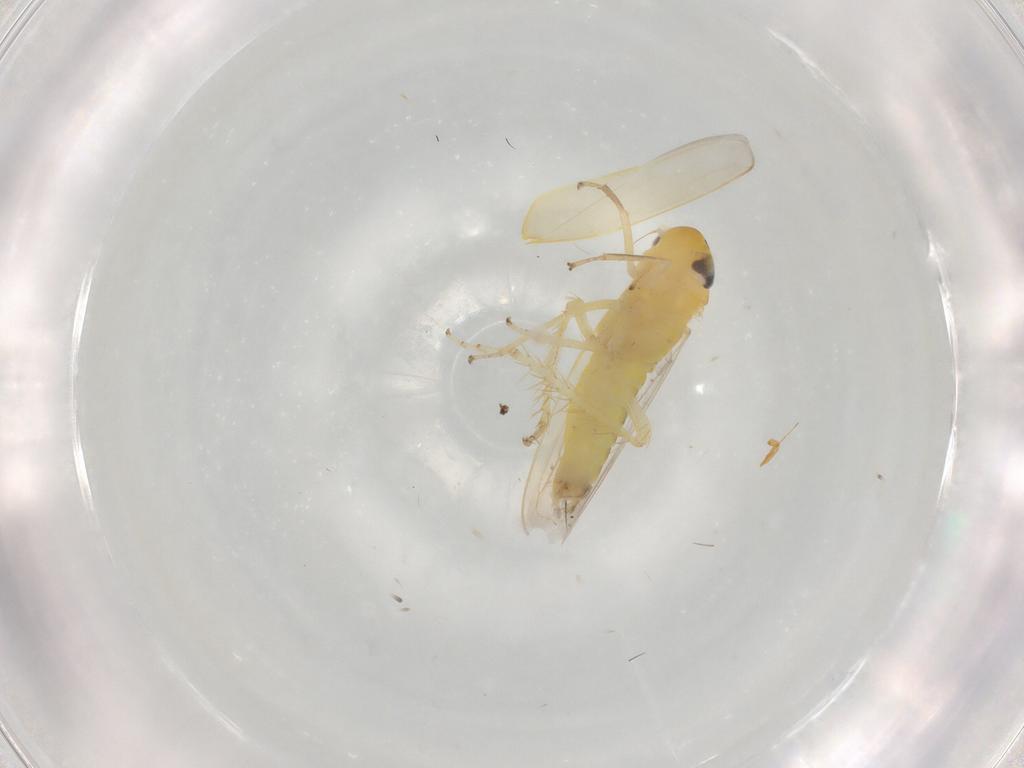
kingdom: Animalia
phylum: Arthropoda
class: Insecta
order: Hemiptera
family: Cicadellidae
